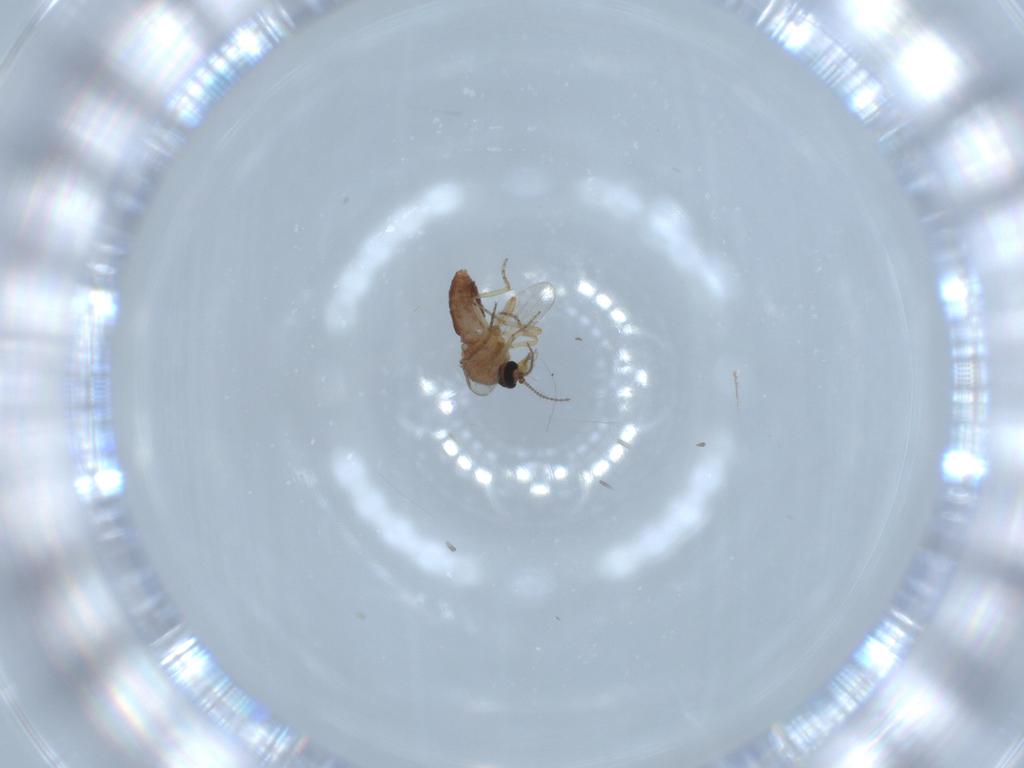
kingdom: Animalia
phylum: Arthropoda
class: Insecta
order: Diptera
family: Ceratopogonidae
